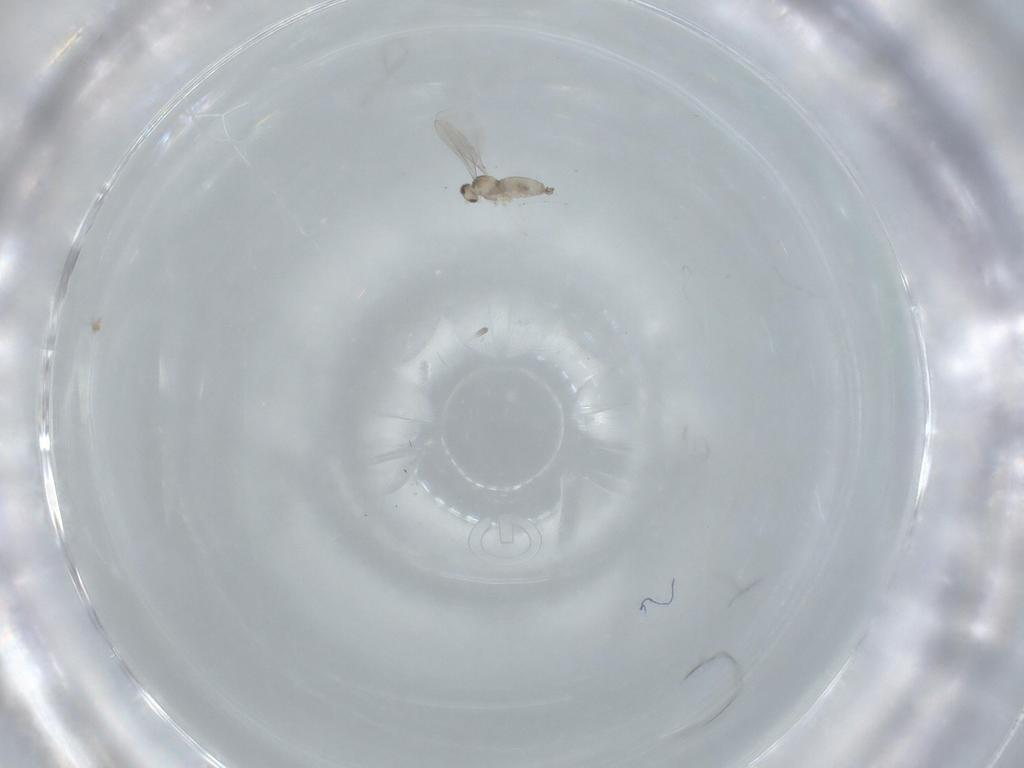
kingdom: Animalia
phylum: Arthropoda
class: Insecta
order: Diptera
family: Cecidomyiidae
